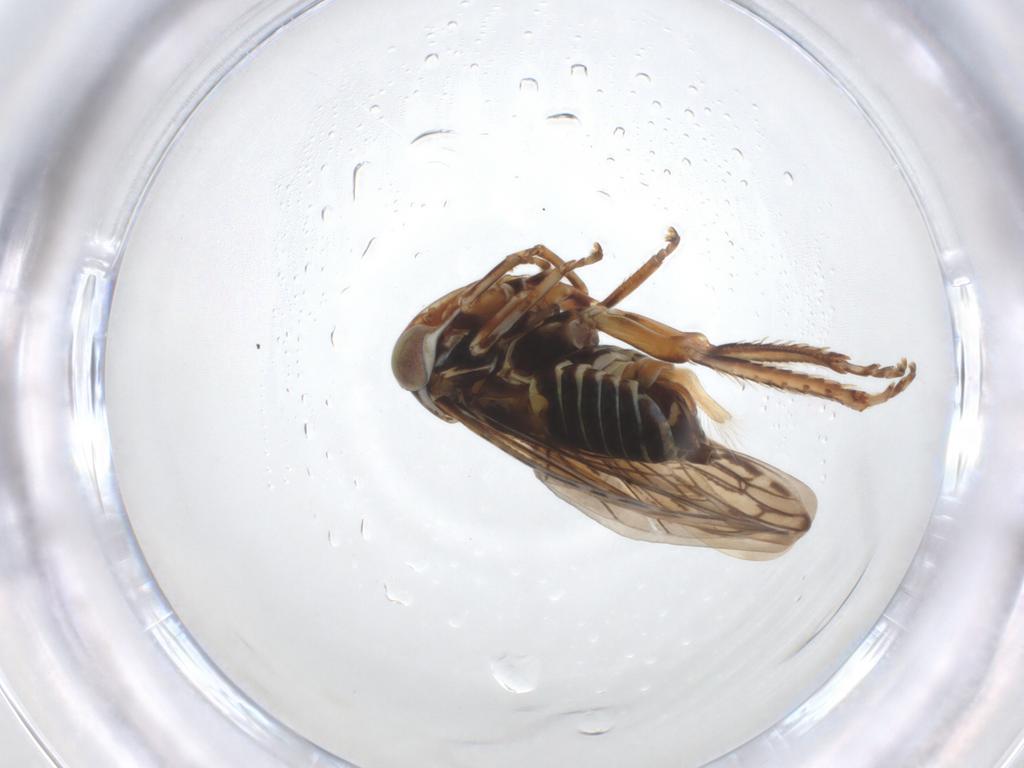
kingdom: Animalia
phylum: Arthropoda
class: Insecta
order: Hemiptera
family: Cicadellidae
